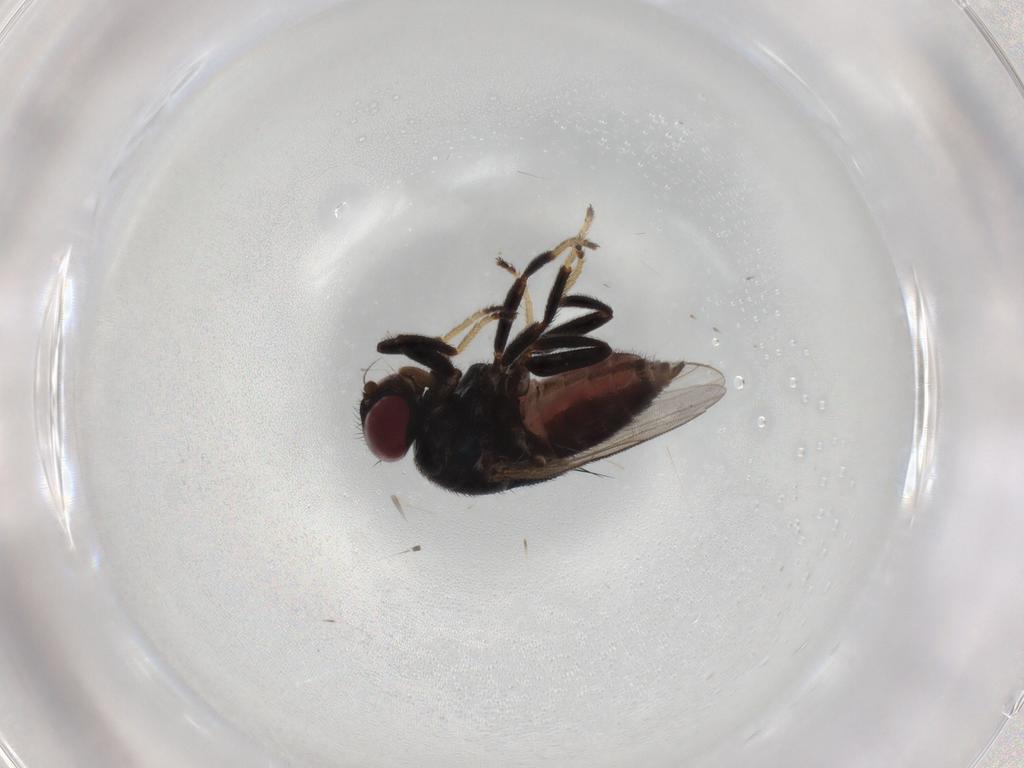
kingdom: Animalia
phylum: Arthropoda
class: Insecta
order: Diptera
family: Chloropidae
